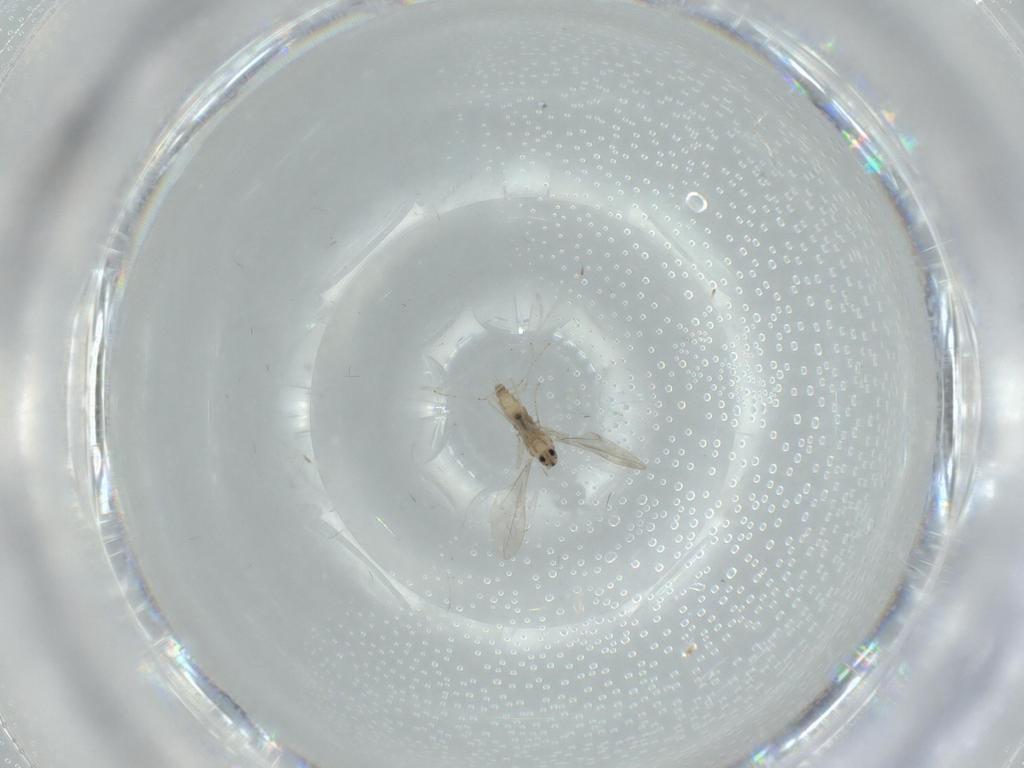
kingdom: Animalia
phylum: Arthropoda
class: Insecta
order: Diptera
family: Cecidomyiidae
